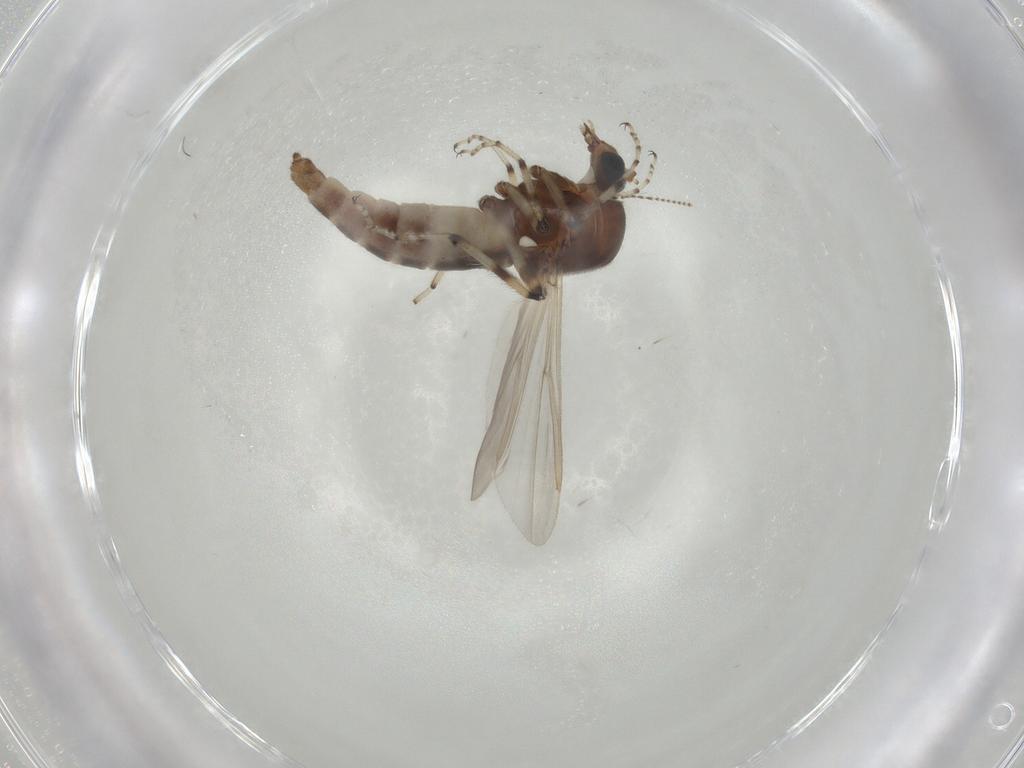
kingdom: Animalia
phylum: Arthropoda
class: Insecta
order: Diptera
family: Ceratopogonidae
